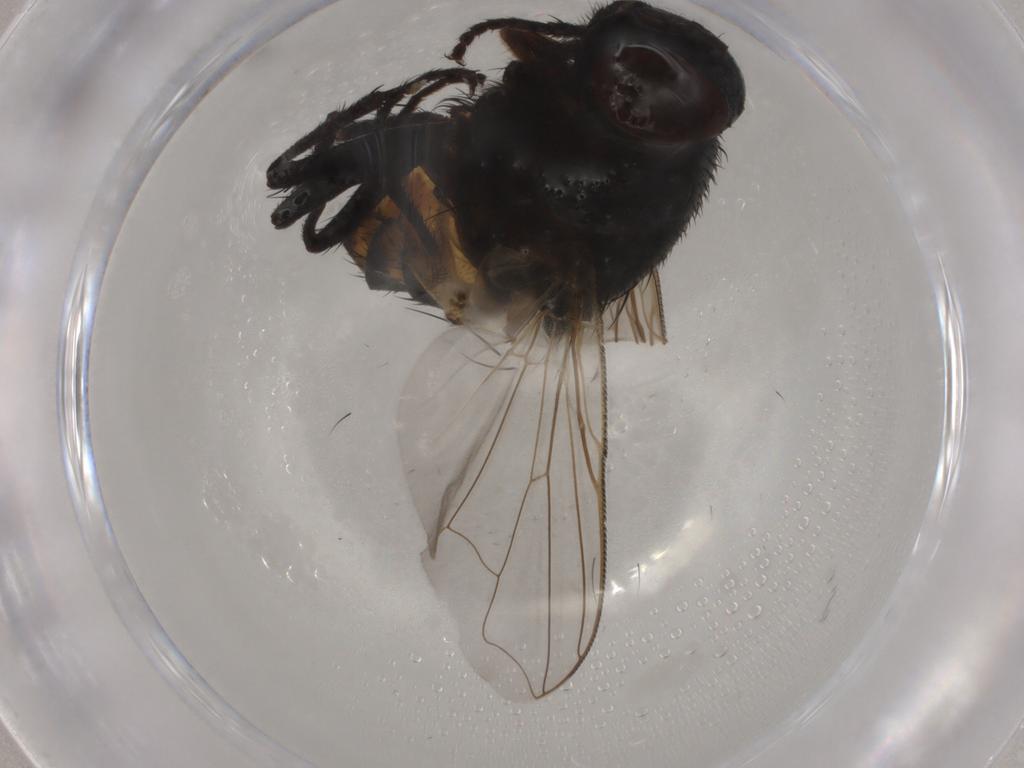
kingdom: Animalia
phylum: Arthropoda
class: Insecta
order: Diptera
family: Muscidae
